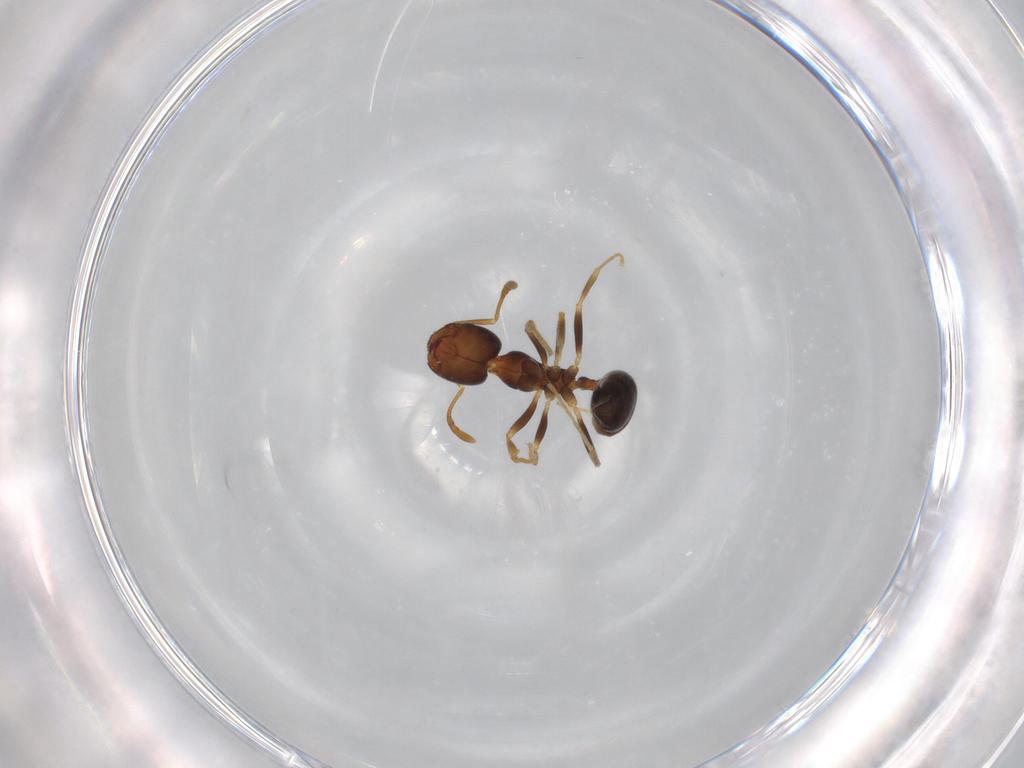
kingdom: Animalia
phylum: Arthropoda
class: Insecta
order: Hymenoptera
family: Formicidae
